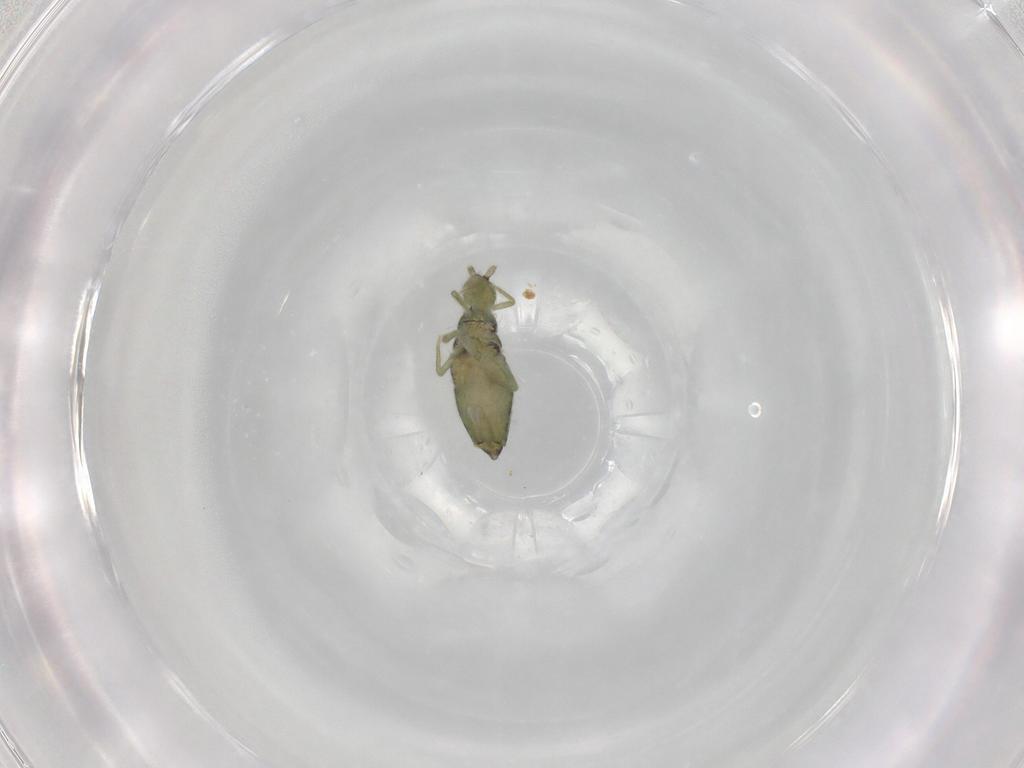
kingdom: Animalia
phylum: Arthropoda
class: Collembola
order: Entomobryomorpha
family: Entomobryidae
